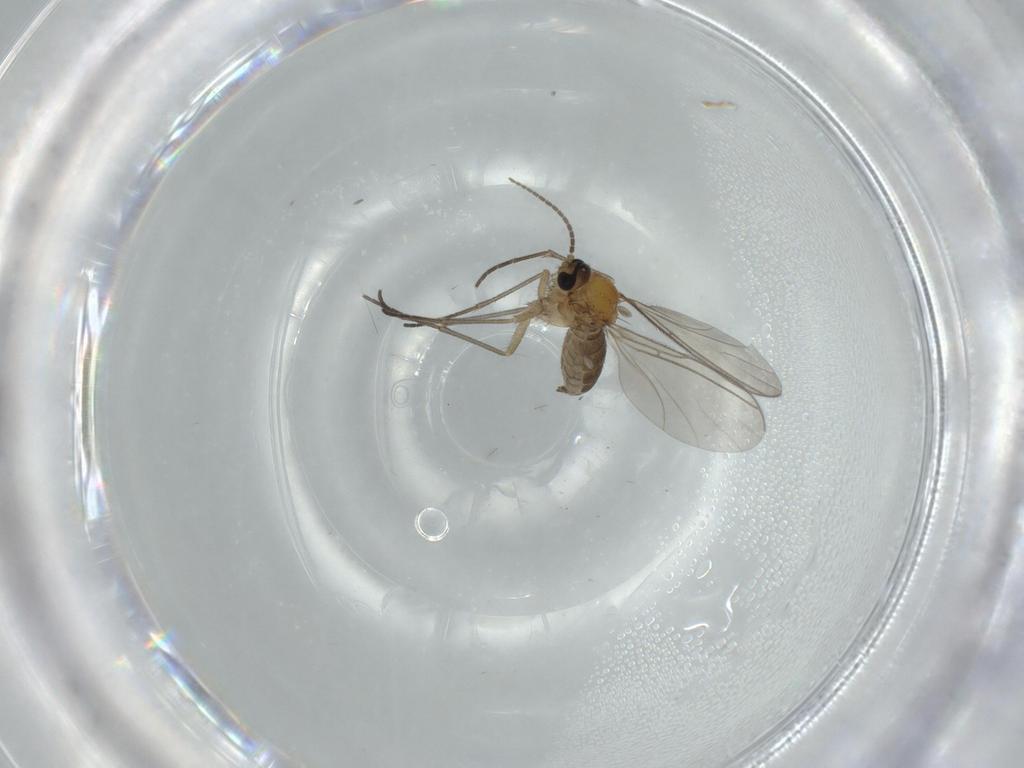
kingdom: Animalia
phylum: Arthropoda
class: Insecta
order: Diptera
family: Sciaridae
